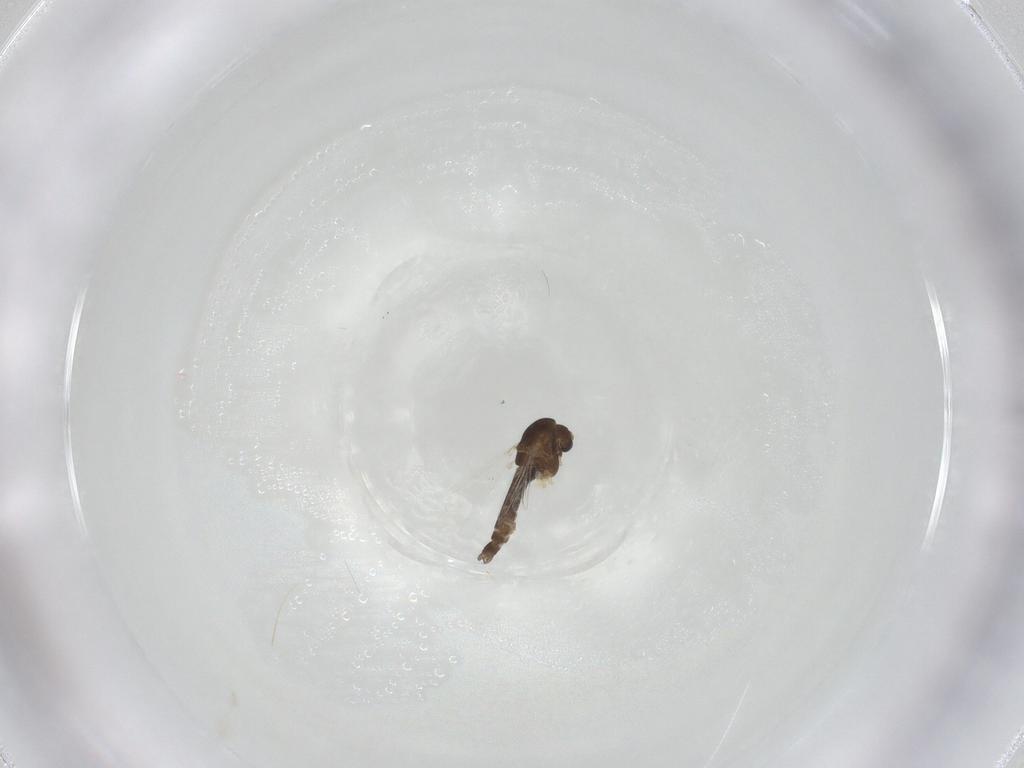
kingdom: Animalia
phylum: Arthropoda
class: Insecta
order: Diptera
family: Chironomidae
